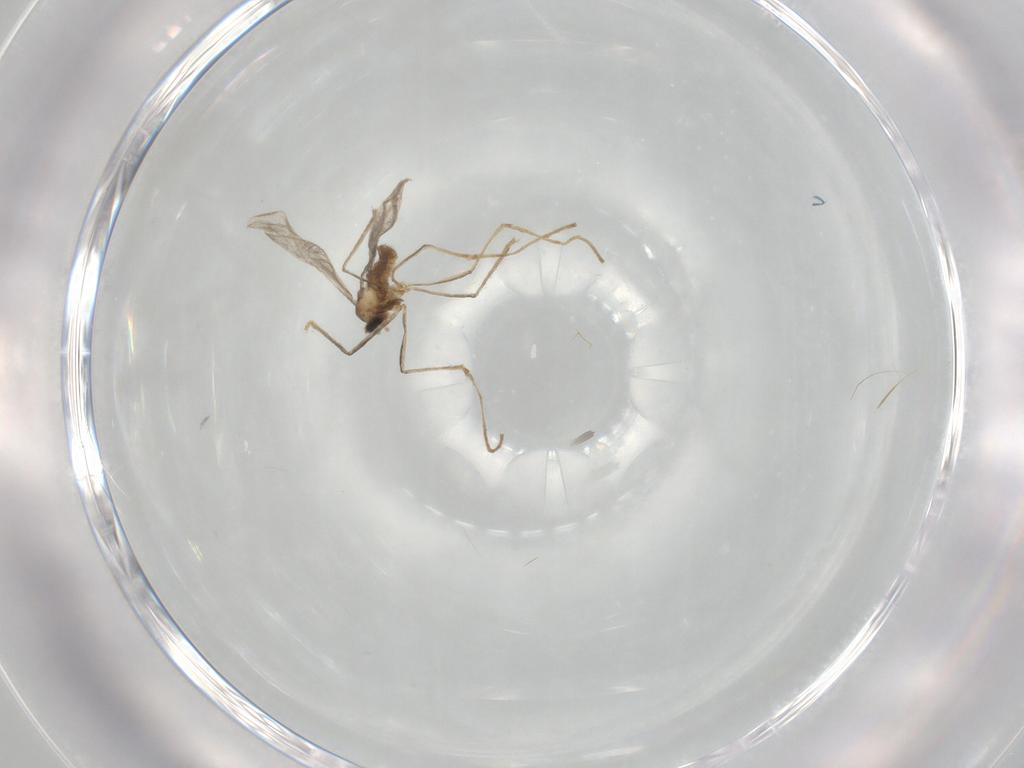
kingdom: Animalia
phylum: Arthropoda
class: Insecta
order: Diptera
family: Cecidomyiidae
